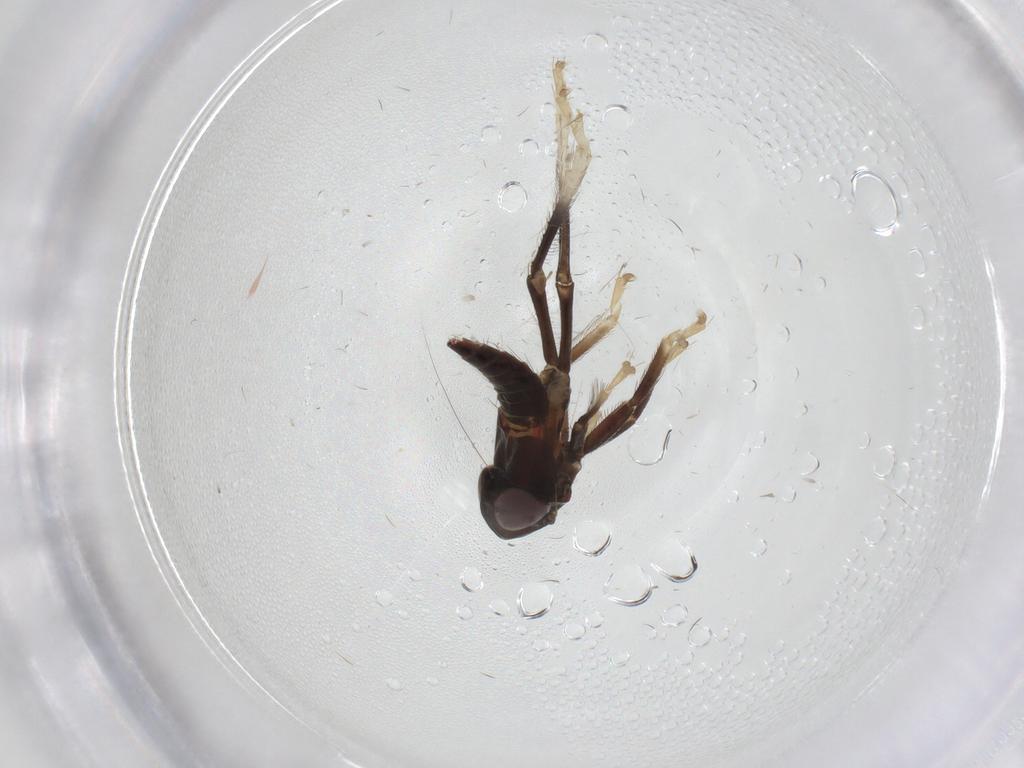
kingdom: Animalia
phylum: Arthropoda
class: Insecta
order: Hemiptera
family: Cicadellidae
